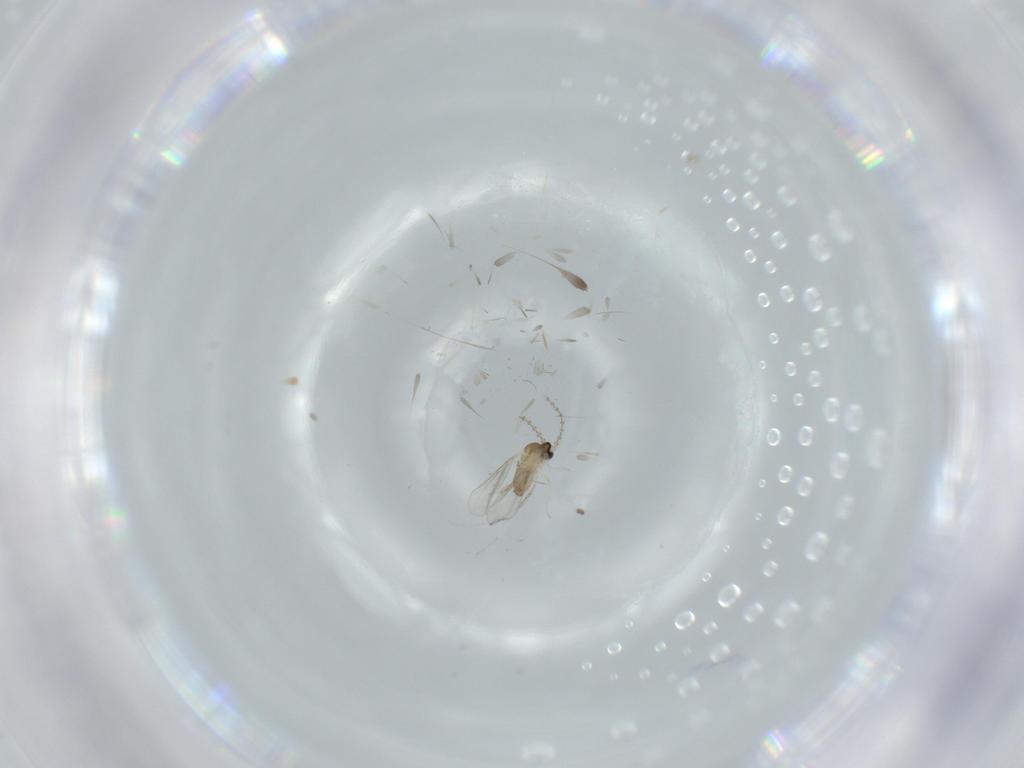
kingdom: Animalia
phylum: Arthropoda
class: Insecta
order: Diptera
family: Cecidomyiidae
